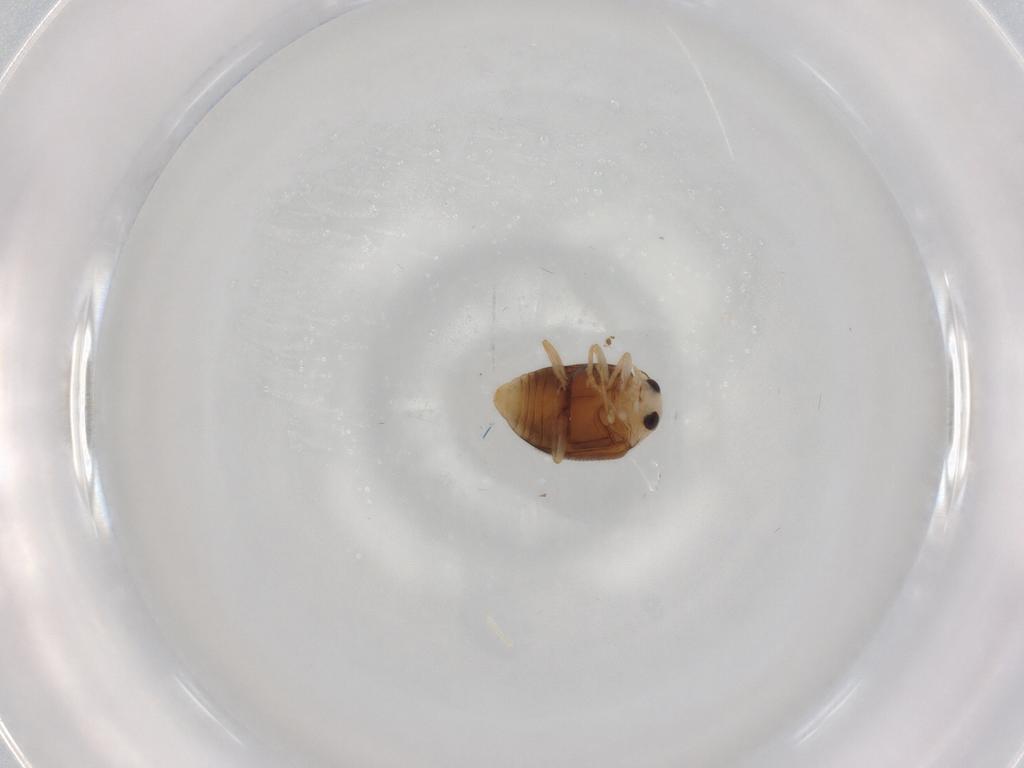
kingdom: Animalia
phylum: Arthropoda
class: Insecta
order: Coleoptera
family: Coccinellidae
